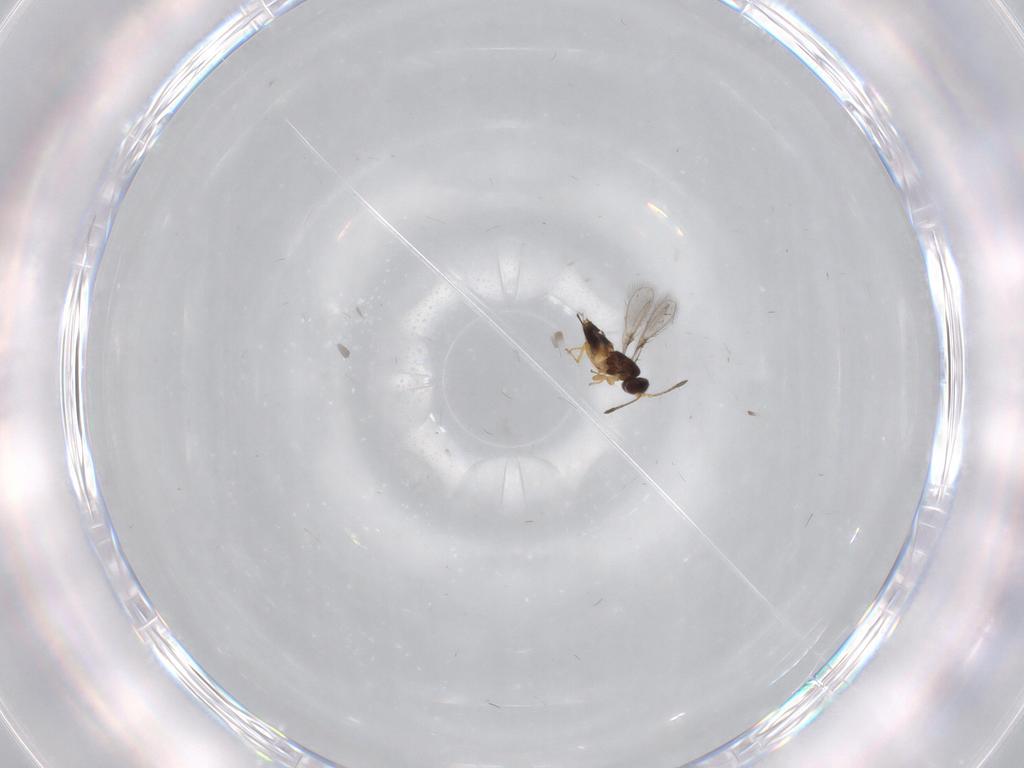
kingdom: Animalia
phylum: Arthropoda
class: Insecta
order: Hymenoptera
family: Mymaridae
